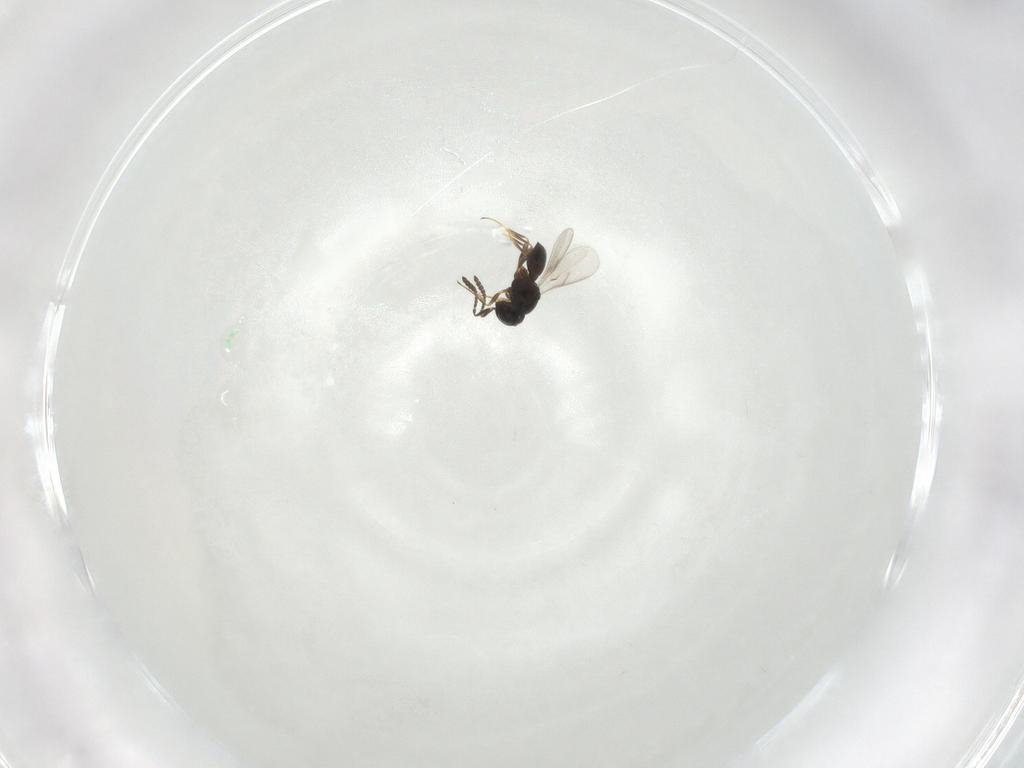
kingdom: Animalia
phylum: Arthropoda
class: Insecta
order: Hymenoptera
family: Scelionidae
